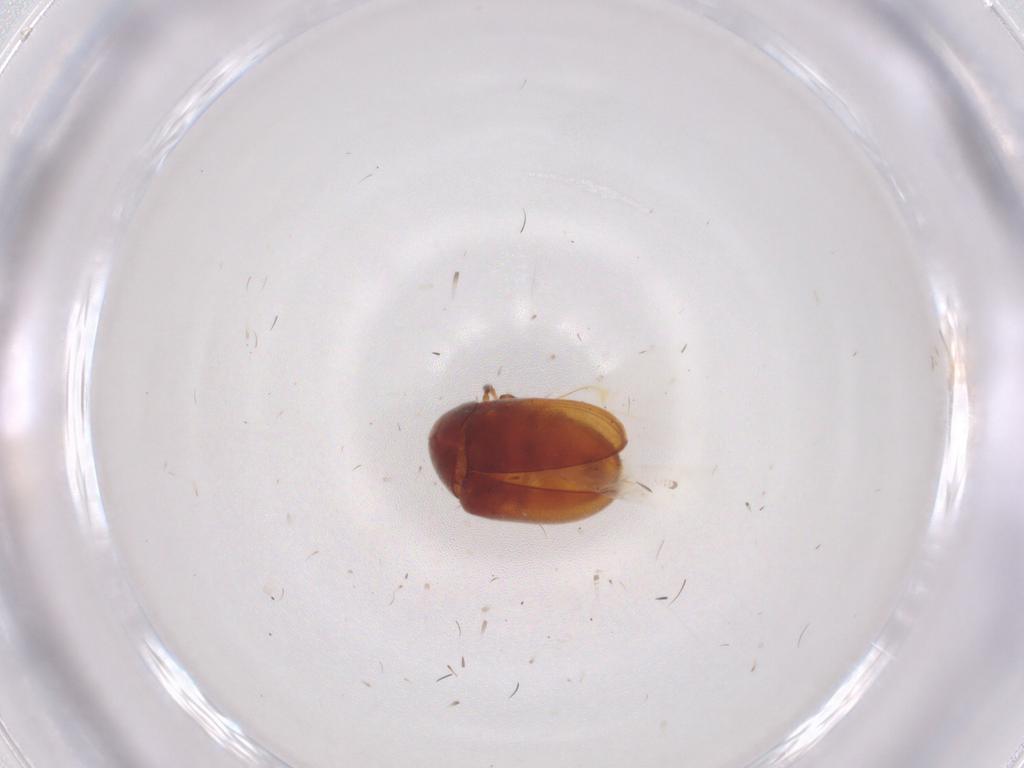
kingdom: Animalia
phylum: Arthropoda
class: Insecta
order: Coleoptera
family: Ptinidae
